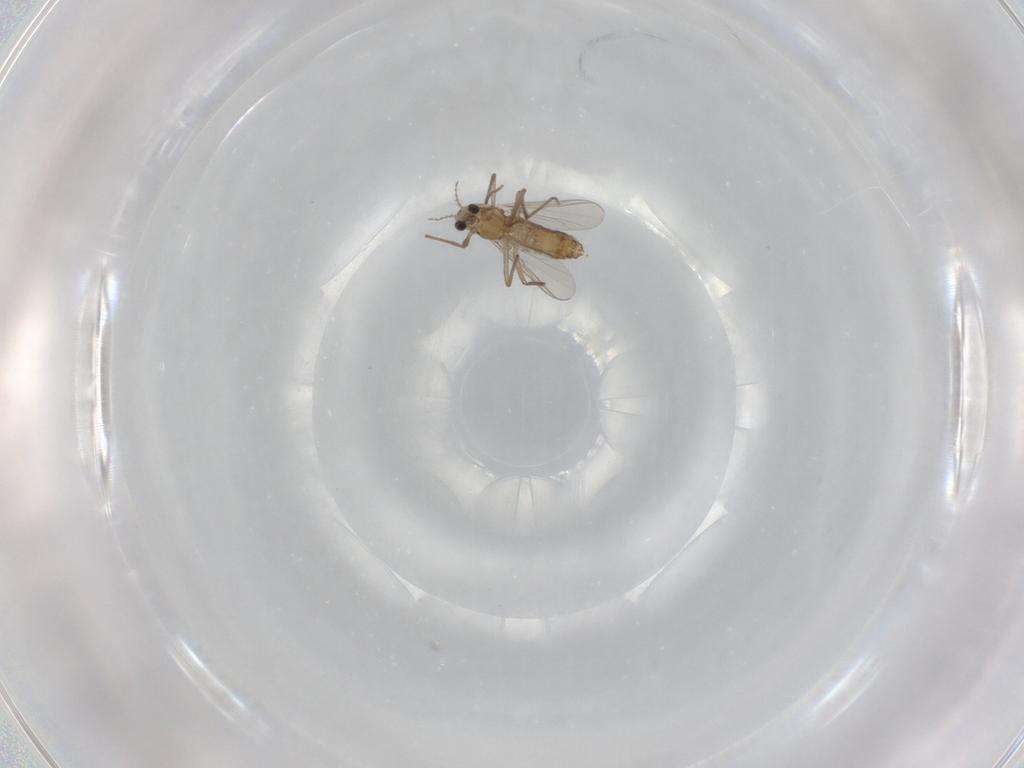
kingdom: Animalia
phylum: Arthropoda
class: Insecta
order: Diptera
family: Chironomidae
